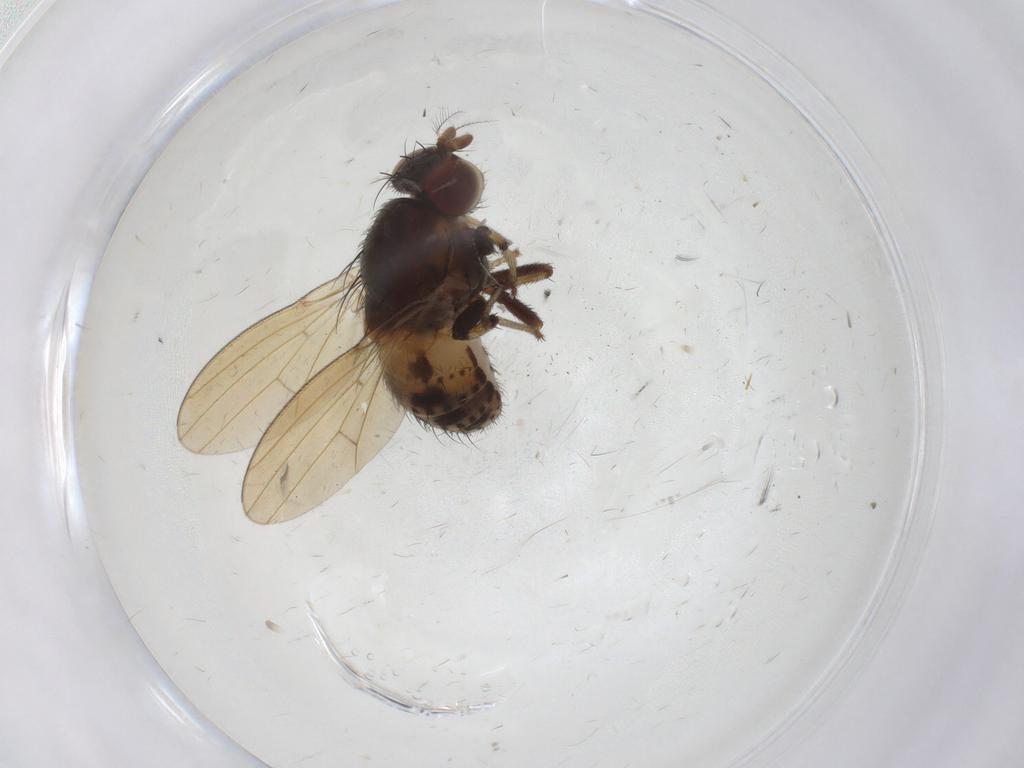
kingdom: Animalia
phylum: Arthropoda
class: Insecta
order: Diptera
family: Ceratopogonidae
